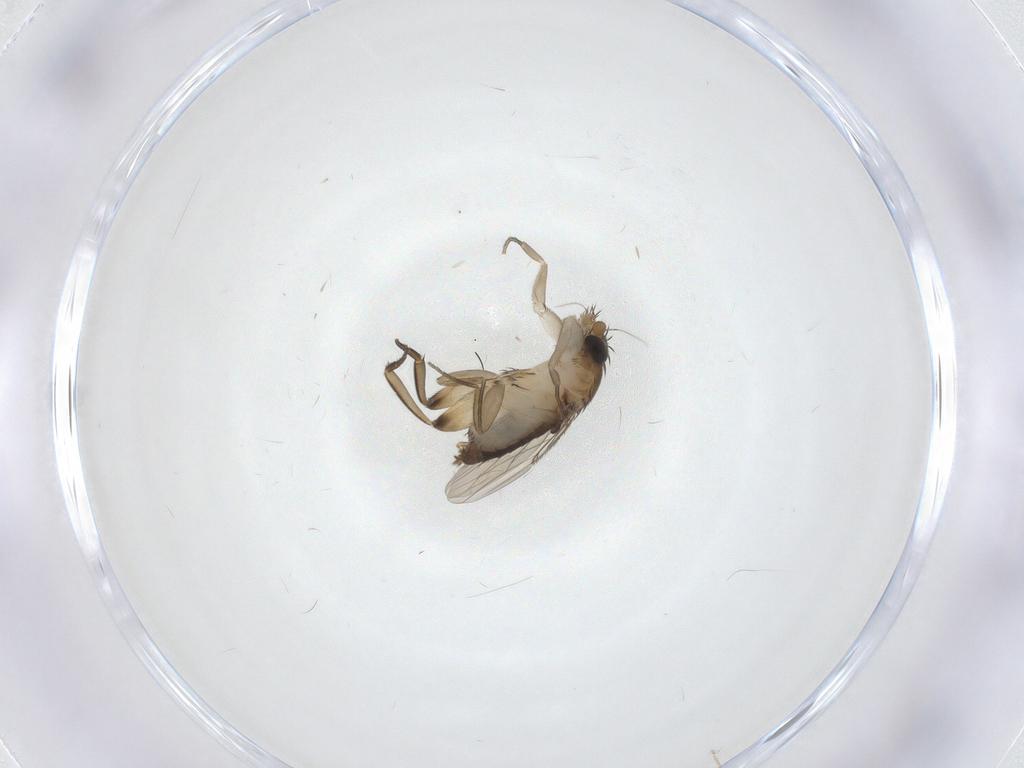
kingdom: Animalia
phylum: Arthropoda
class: Insecta
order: Diptera
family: Phoridae
